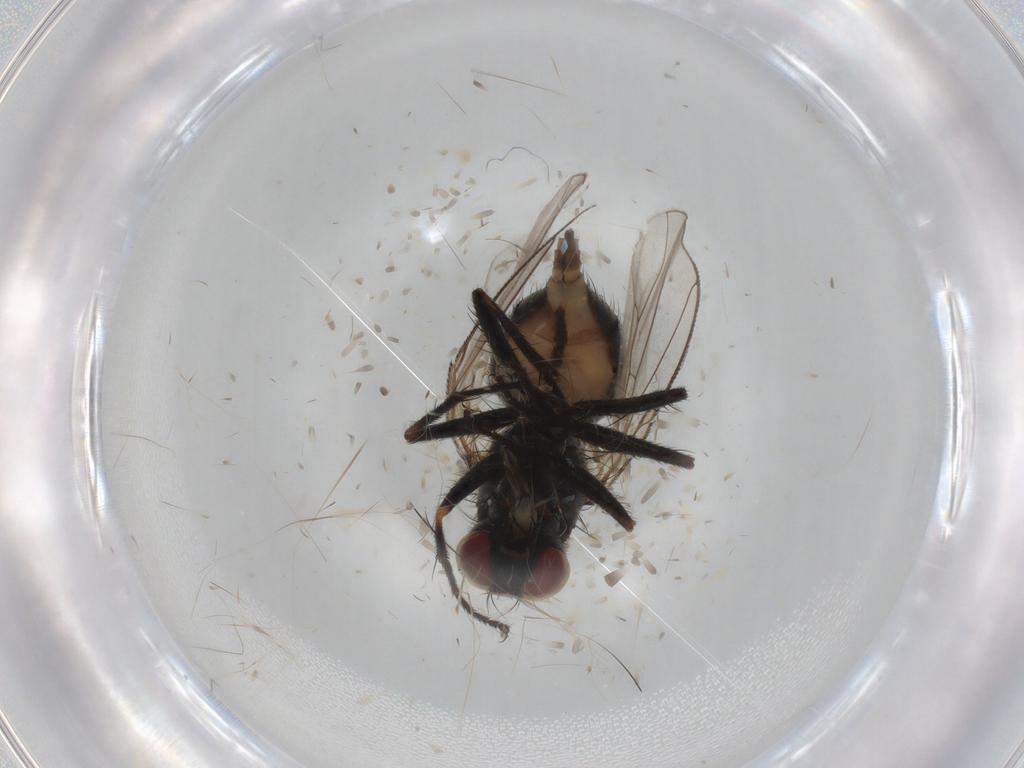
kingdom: Animalia
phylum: Arthropoda
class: Insecta
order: Diptera
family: Muscidae
